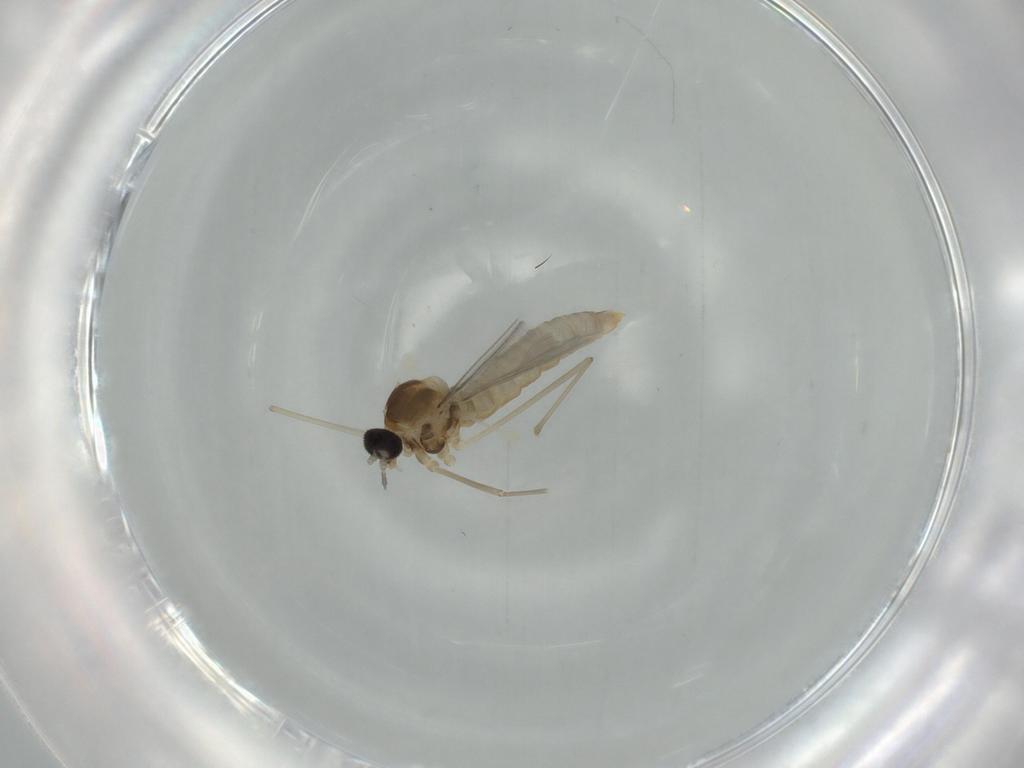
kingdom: Animalia
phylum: Arthropoda
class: Insecta
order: Diptera
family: Cecidomyiidae
